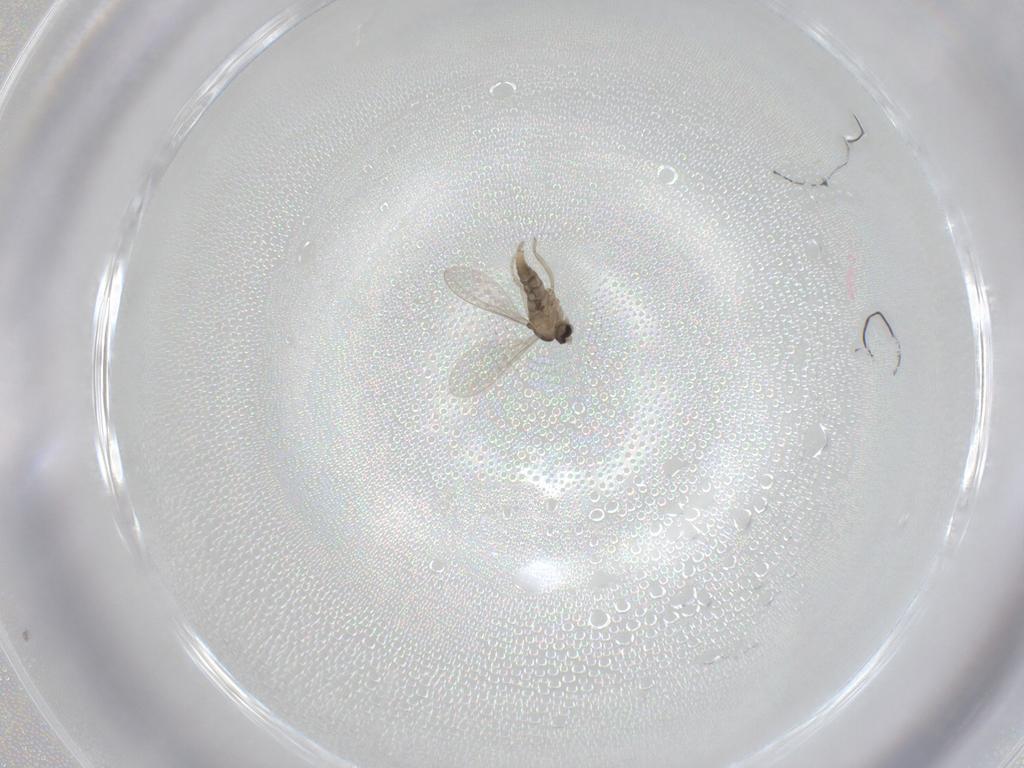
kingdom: Animalia
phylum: Arthropoda
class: Insecta
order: Diptera
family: Cecidomyiidae
